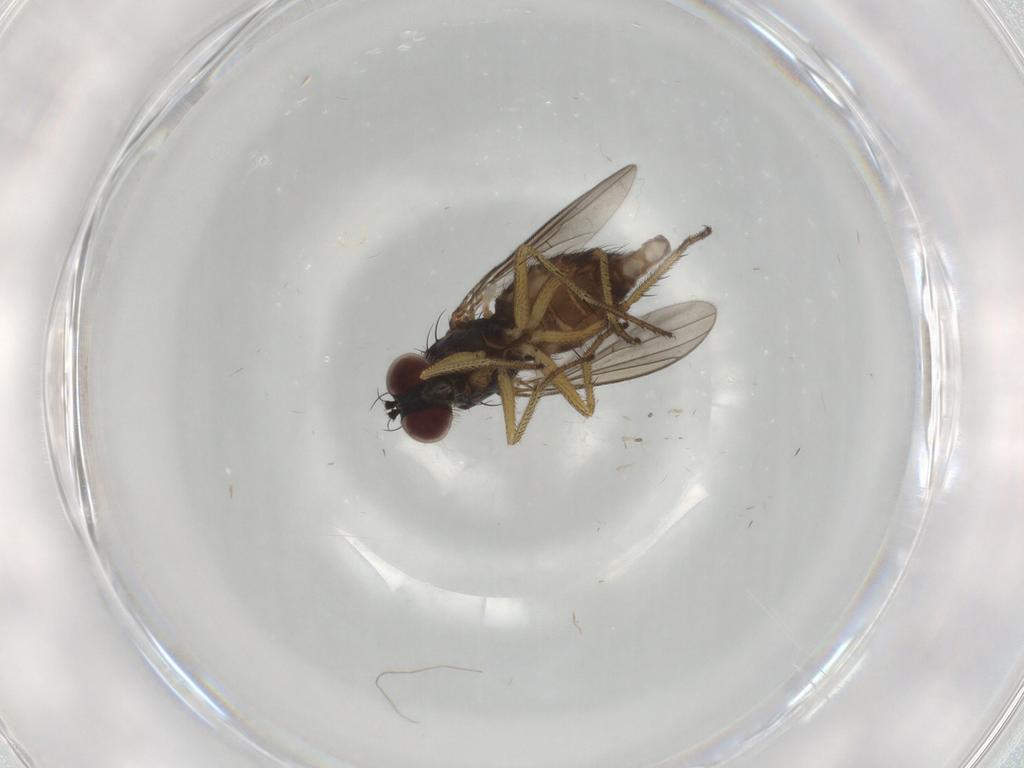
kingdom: Animalia
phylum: Arthropoda
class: Insecta
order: Diptera
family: Dolichopodidae
